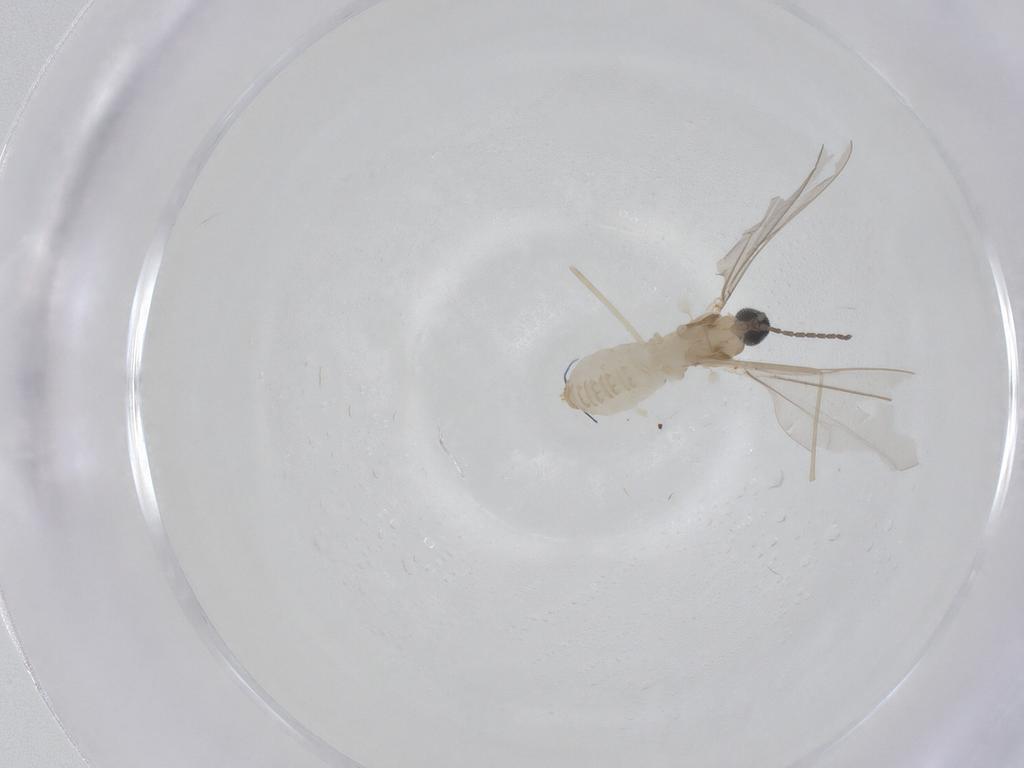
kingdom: Animalia
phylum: Arthropoda
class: Insecta
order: Diptera
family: Cecidomyiidae
